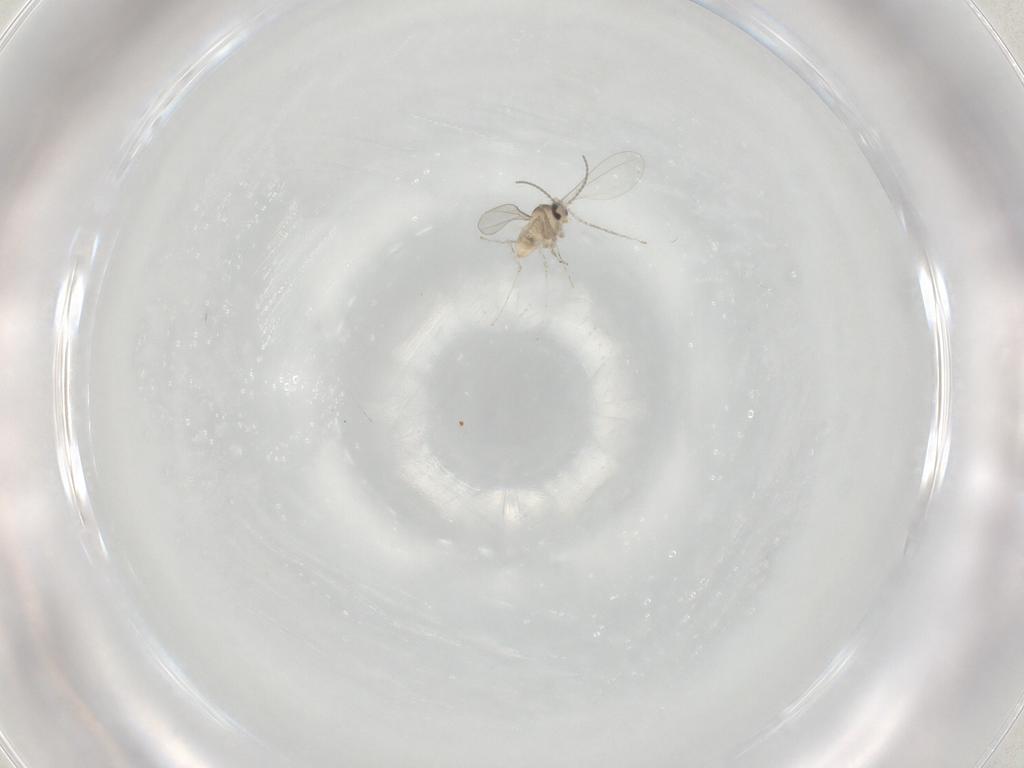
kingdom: Animalia
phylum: Arthropoda
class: Insecta
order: Diptera
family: Cecidomyiidae
